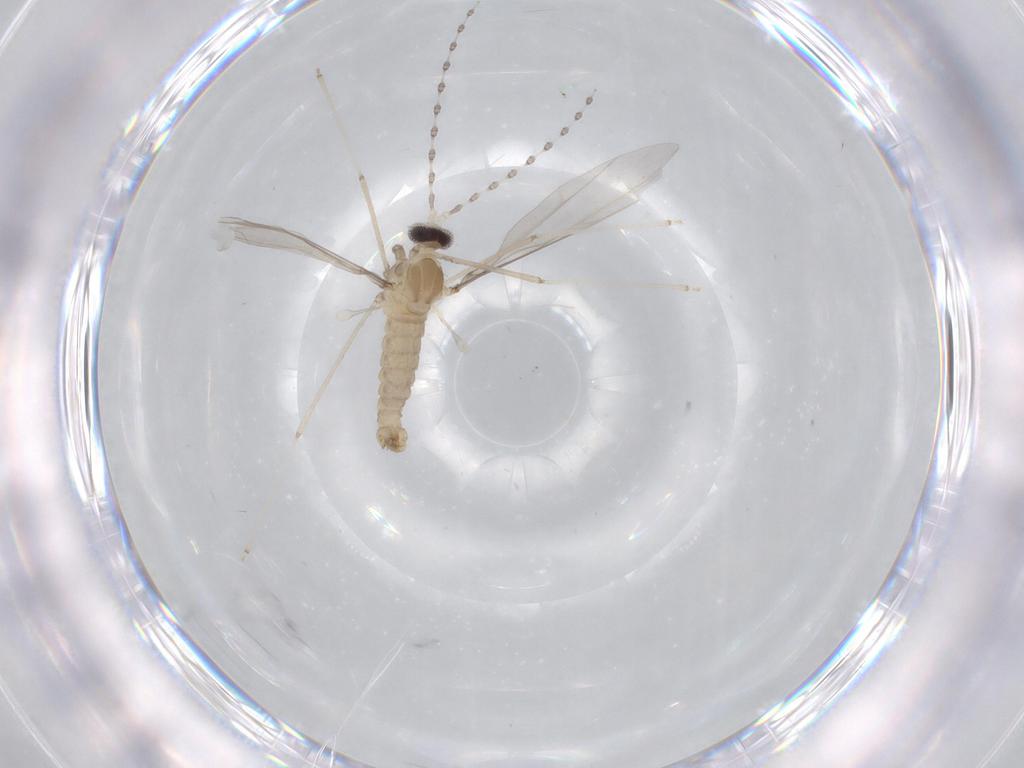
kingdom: Animalia
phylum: Arthropoda
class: Insecta
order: Diptera
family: Cecidomyiidae
